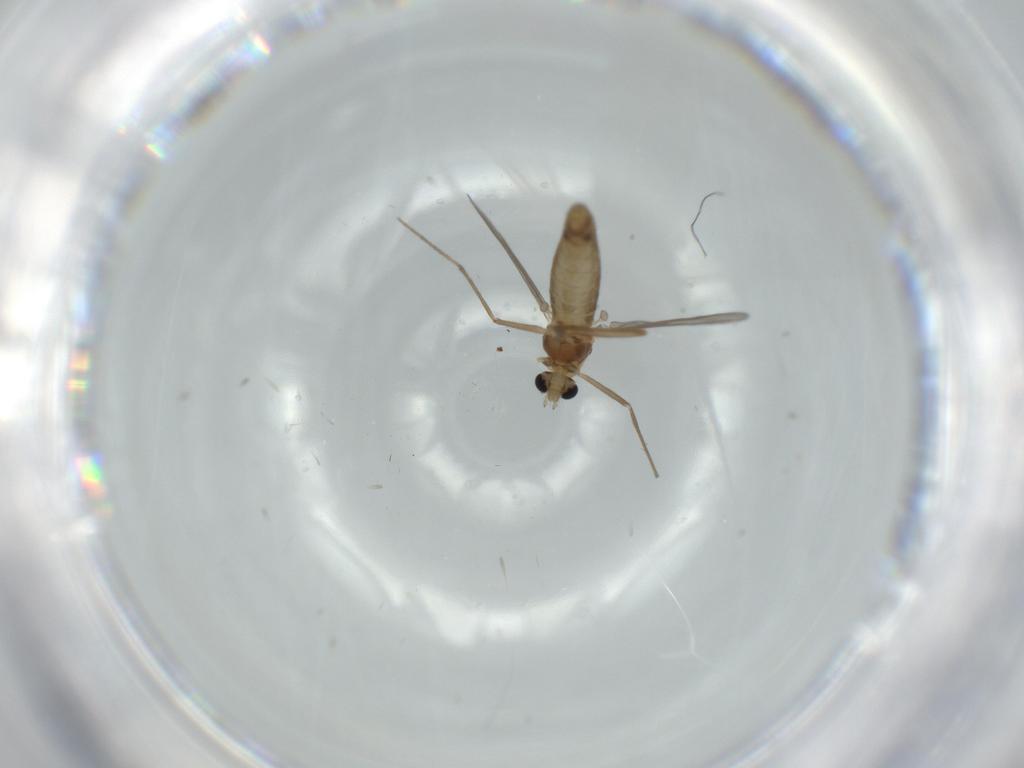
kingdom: Animalia
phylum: Arthropoda
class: Insecta
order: Diptera
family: Chironomidae
